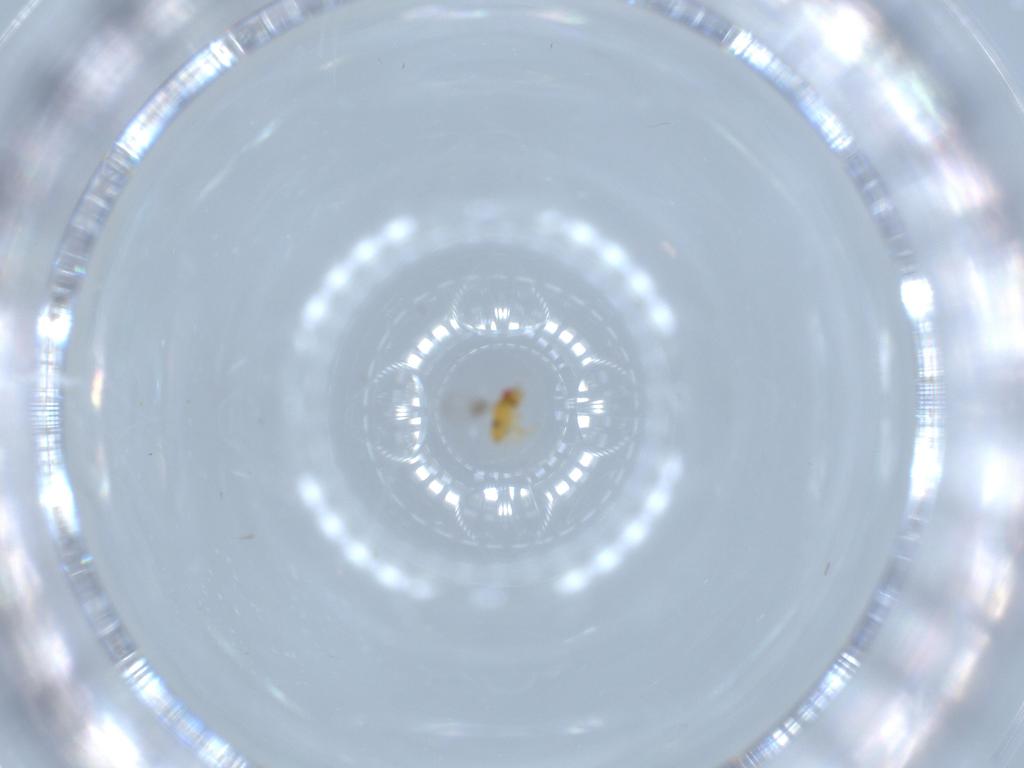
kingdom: Animalia
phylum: Arthropoda
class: Insecta
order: Hymenoptera
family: Trichogrammatidae
